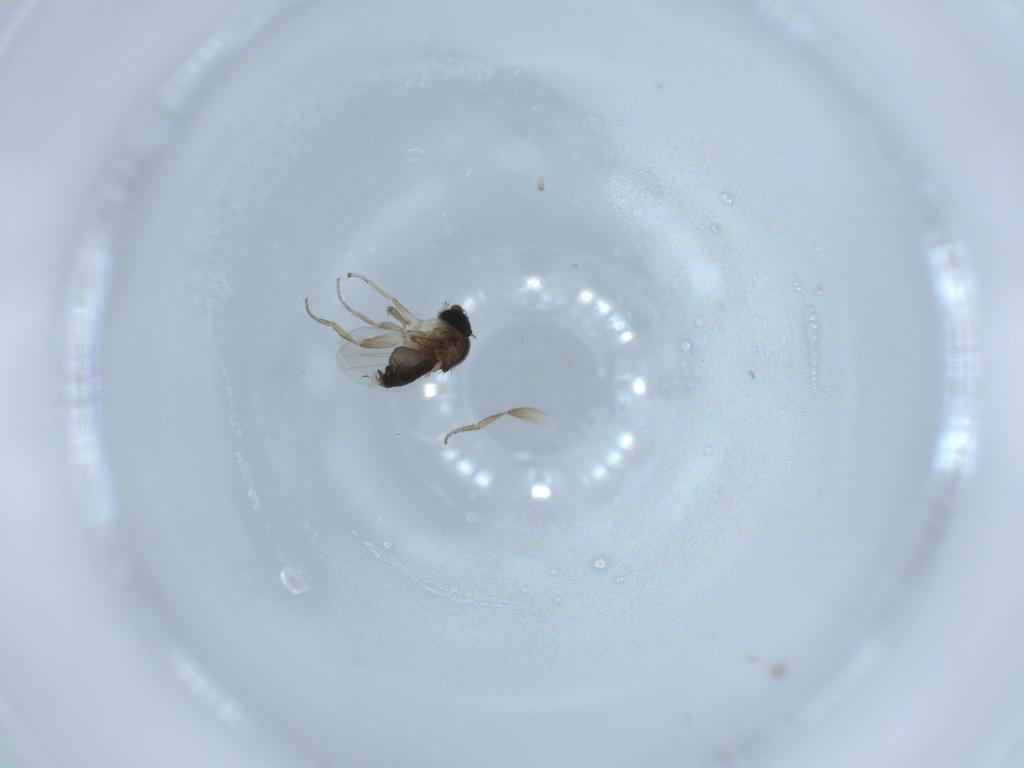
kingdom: Animalia
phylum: Arthropoda
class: Insecta
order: Diptera
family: Phoridae
